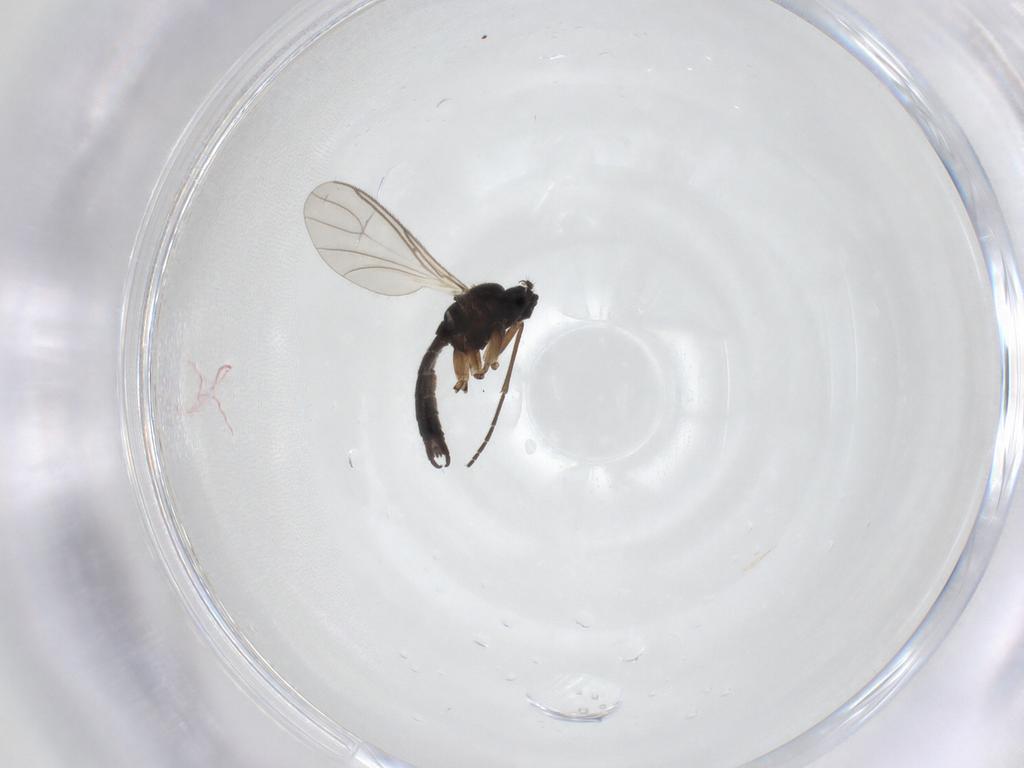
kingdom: Animalia
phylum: Arthropoda
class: Insecta
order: Diptera
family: Sciaridae
